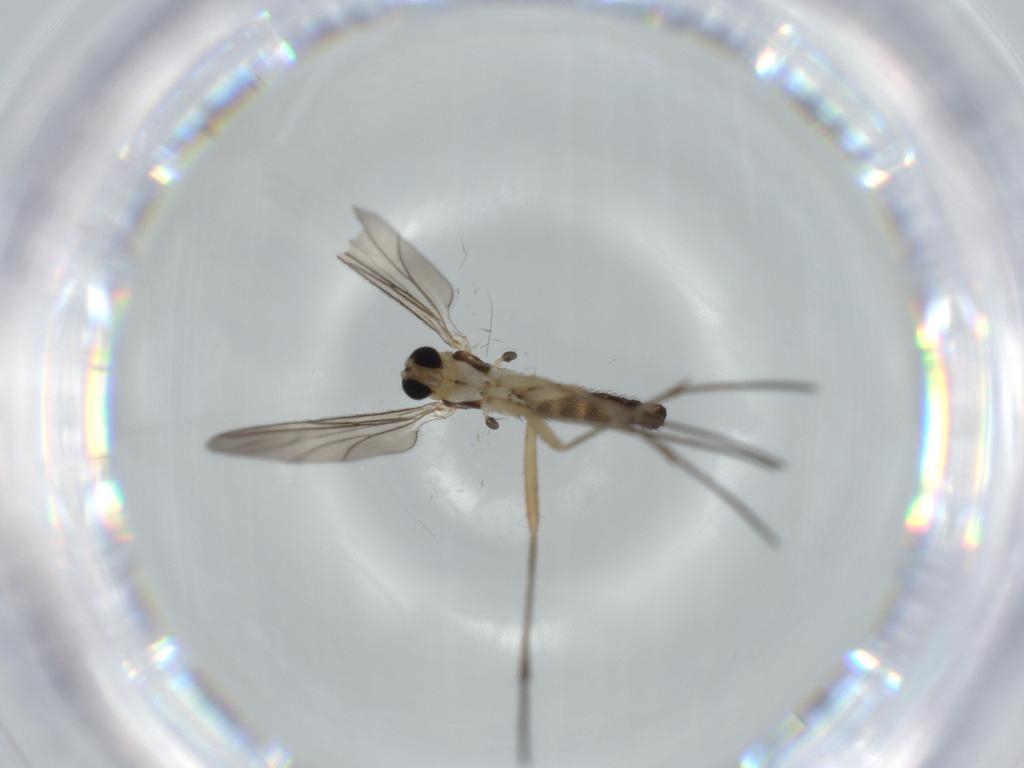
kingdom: Animalia
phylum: Arthropoda
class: Insecta
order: Diptera
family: Sciaridae
